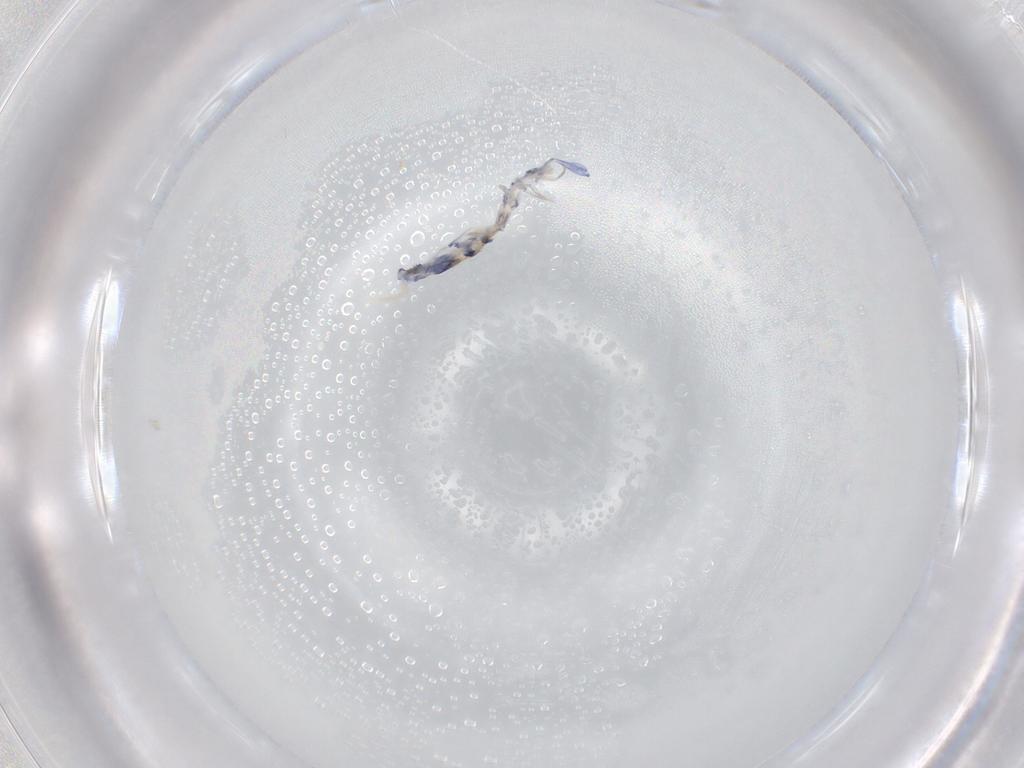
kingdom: Animalia
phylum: Arthropoda
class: Collembola
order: Entomobryomorpha
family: Entomobryidae
